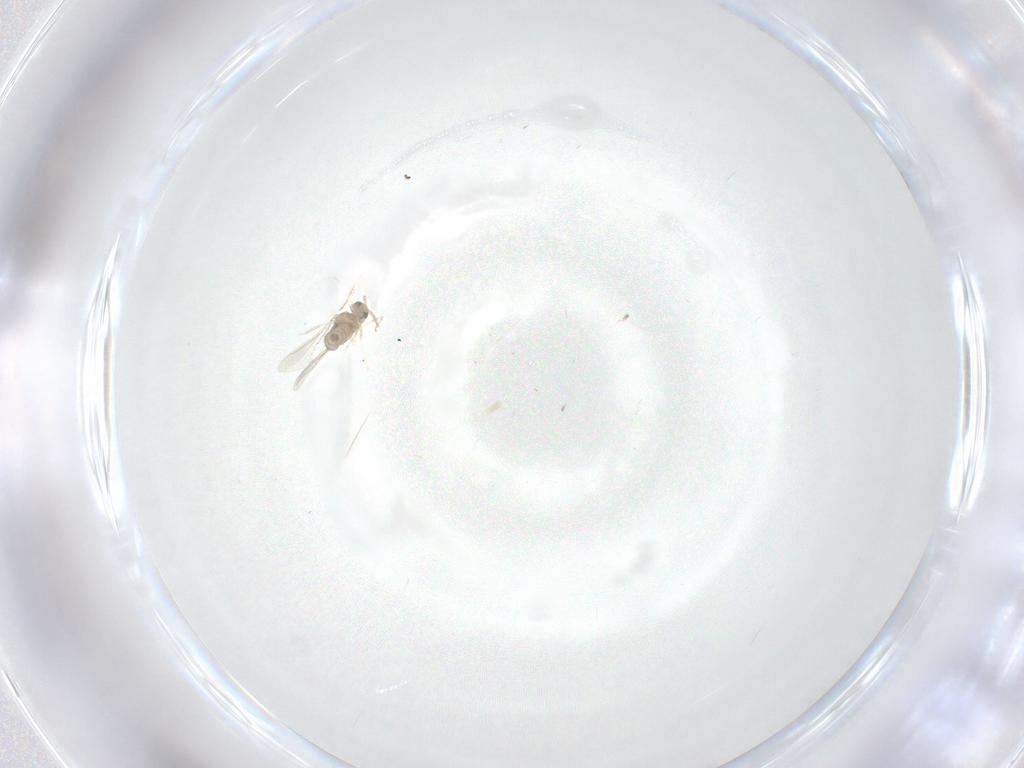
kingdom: Animalia
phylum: Arthropoda
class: Insecta
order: Diptera
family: Cecidomyiidae
